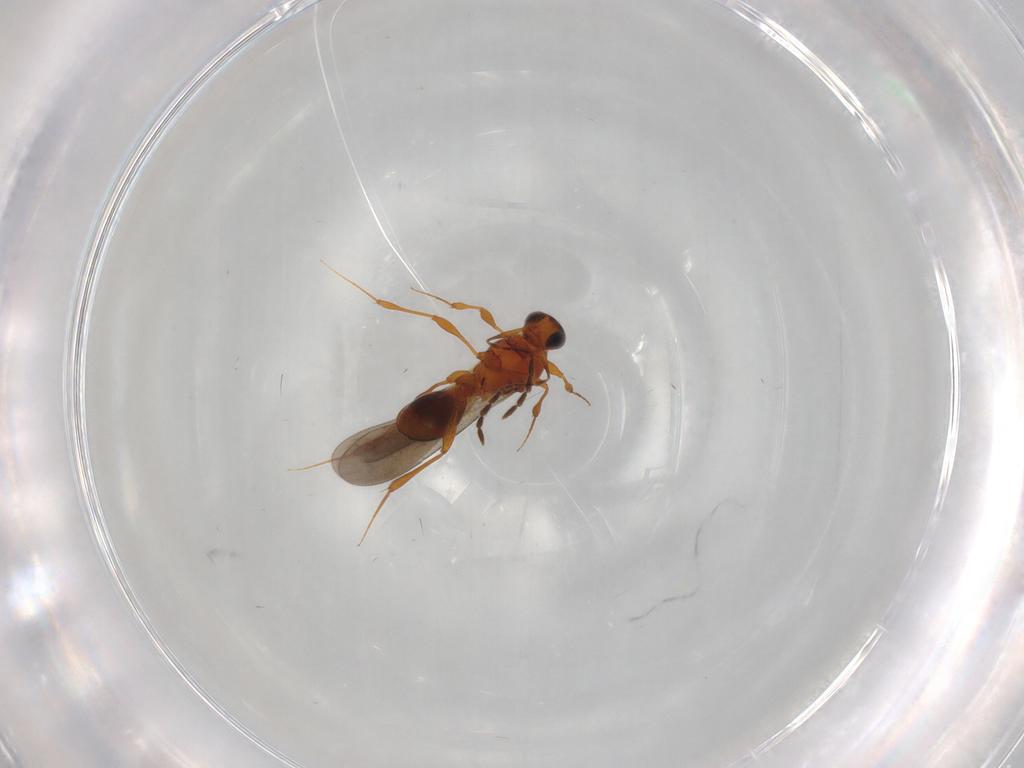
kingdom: Animalia
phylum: Arthropoda
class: Insecta
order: Hymenoptera
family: Platygastridae
